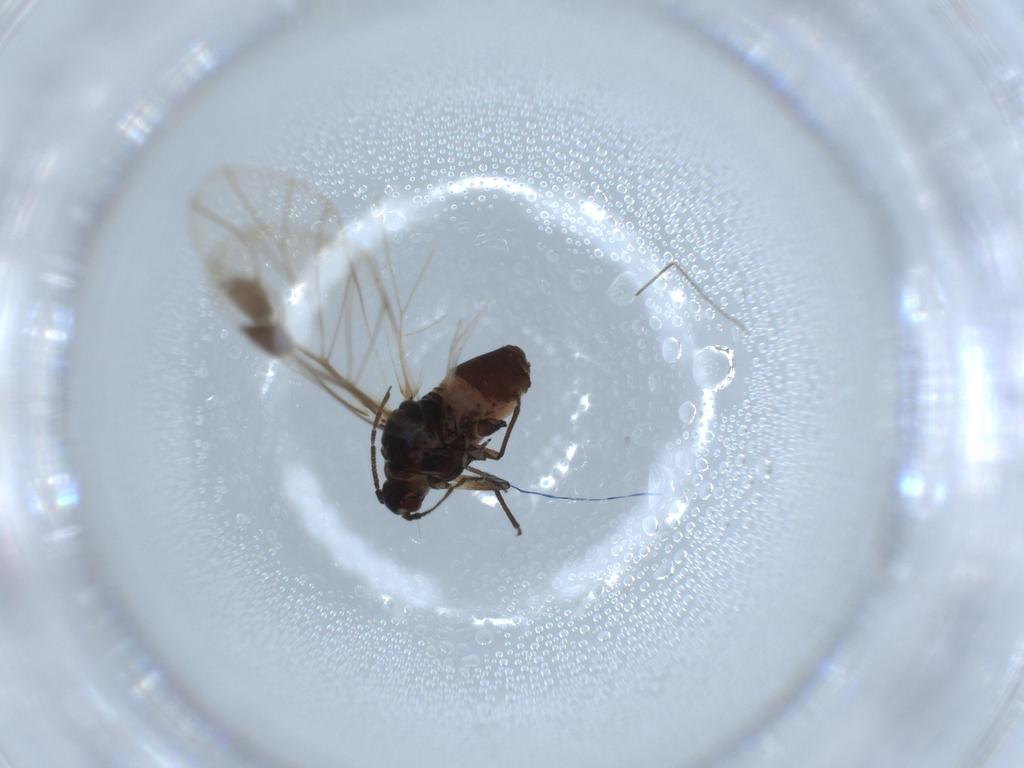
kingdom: Animalia
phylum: Arthropoda
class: Insecta
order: Hemiptera
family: Aleyrodidae
